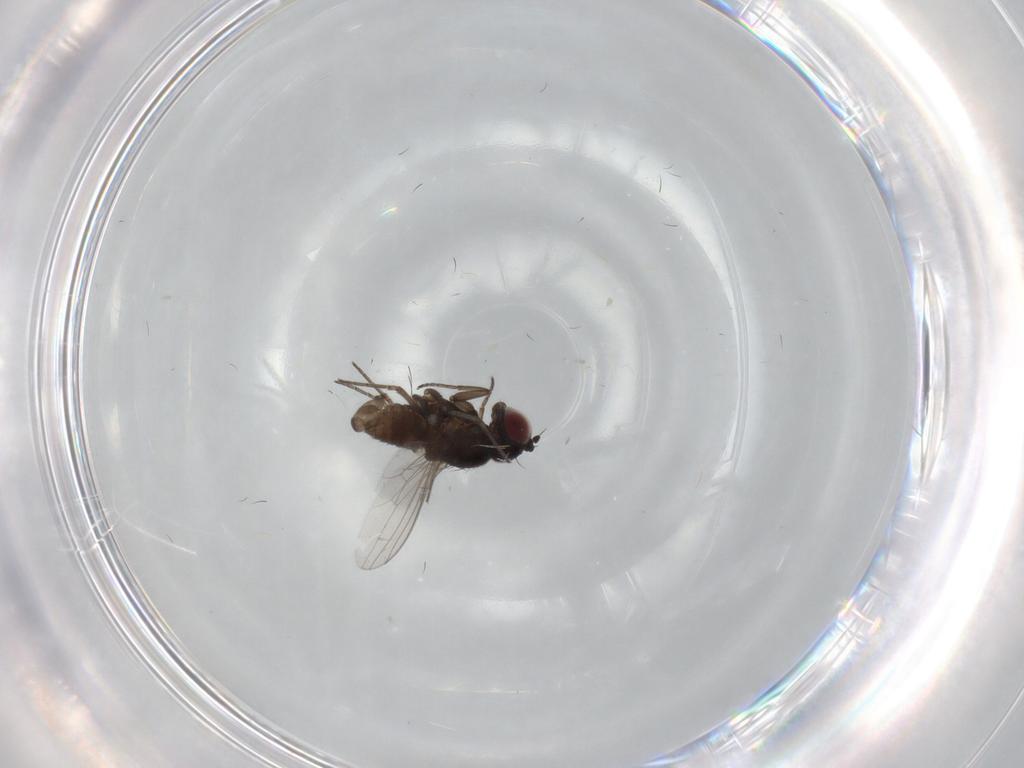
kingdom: Animalia
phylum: Arthropoda
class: Insecta
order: Diptera
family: Dolichopodidae
